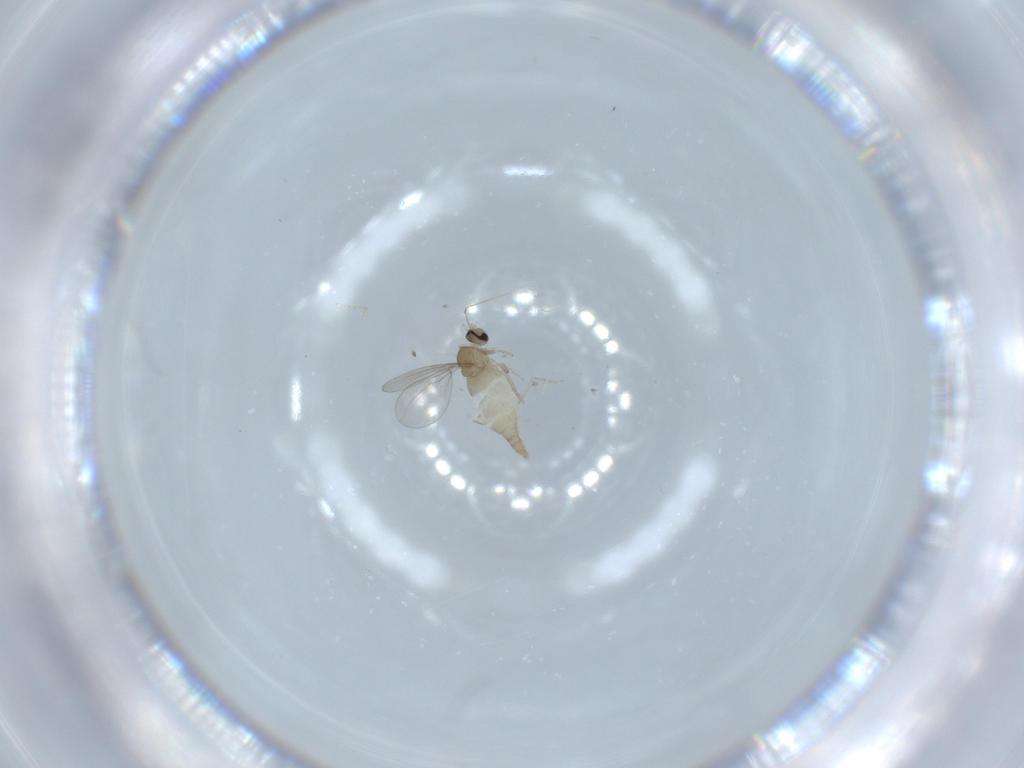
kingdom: Animalia
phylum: Arthropoda
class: Insecta
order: Diptera
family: Cecidomyiidae
